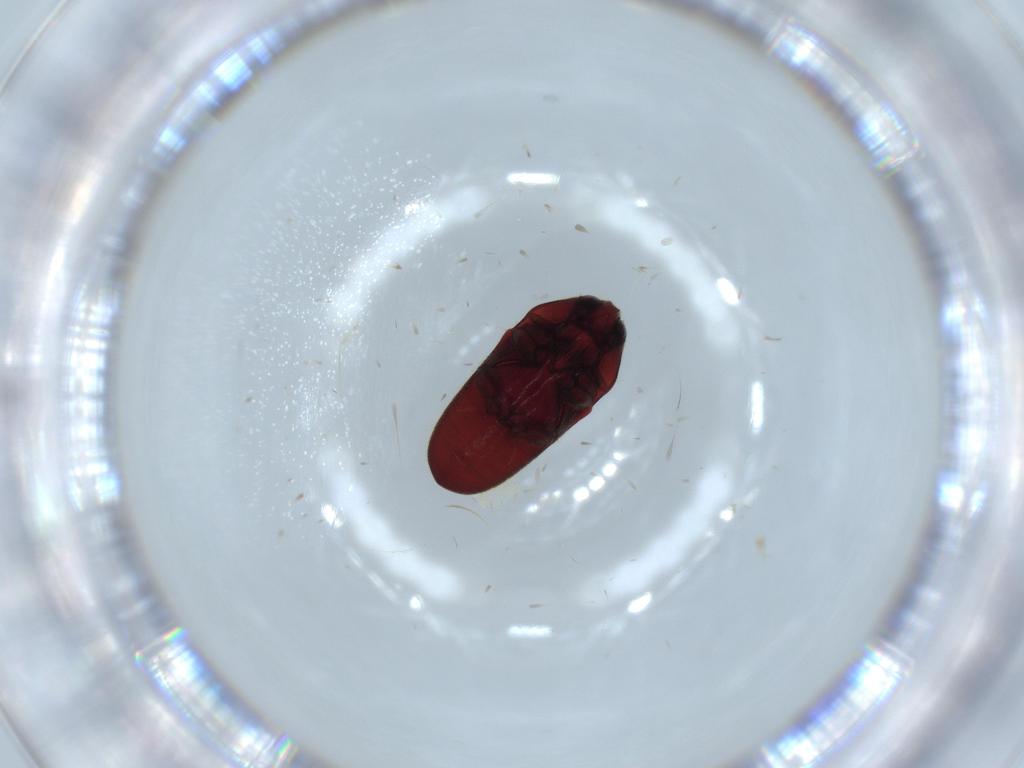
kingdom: Animalia
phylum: Arthropoda
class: Insecta
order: Coleoptera
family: Throscidae
